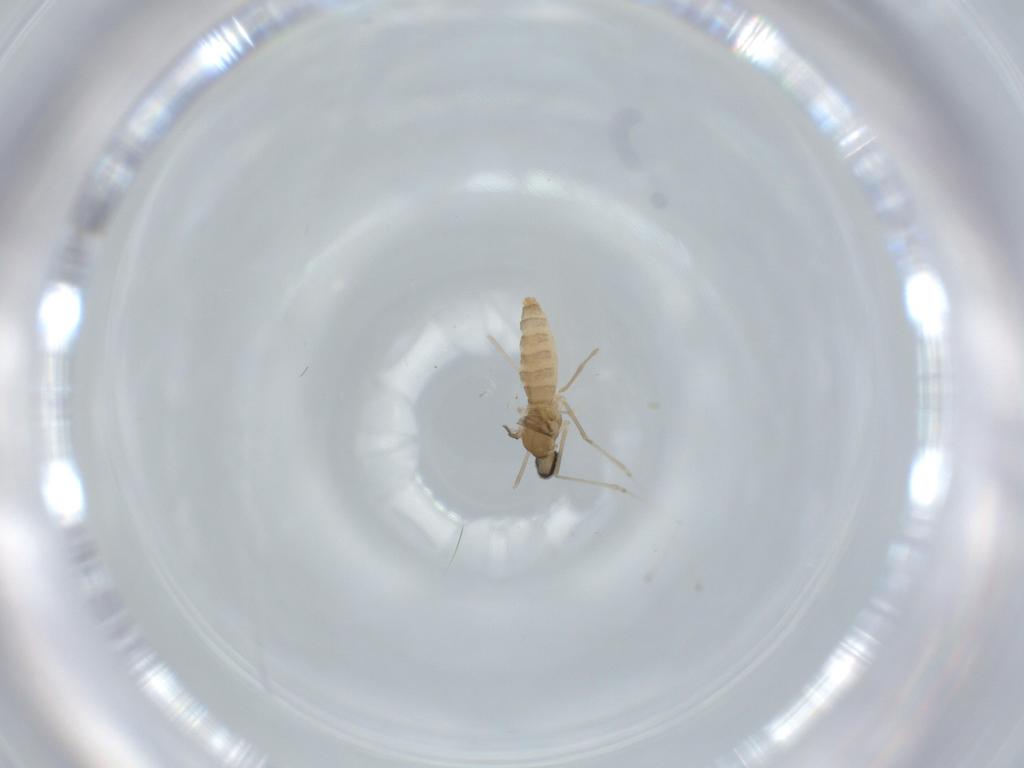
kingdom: Animalia
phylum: Arthropoda
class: Insecta
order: Diptera
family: Cecidomyiidae
